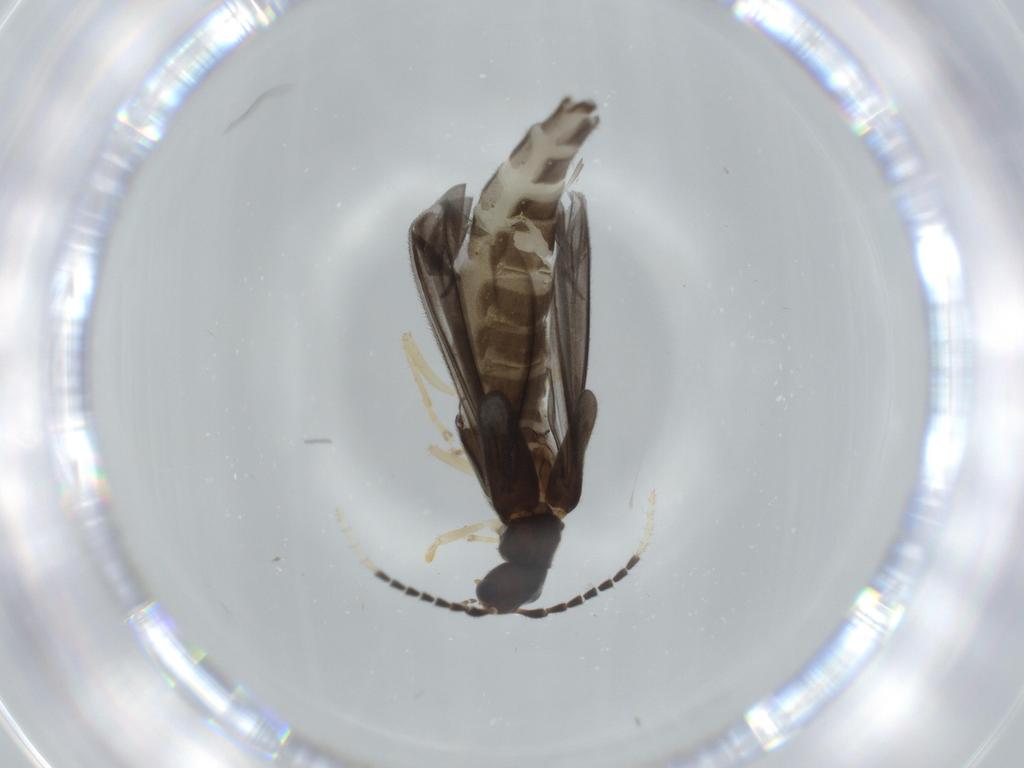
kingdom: Animalia
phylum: Arthropoda
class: Insecta
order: Coleoptera
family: Cantharidae
